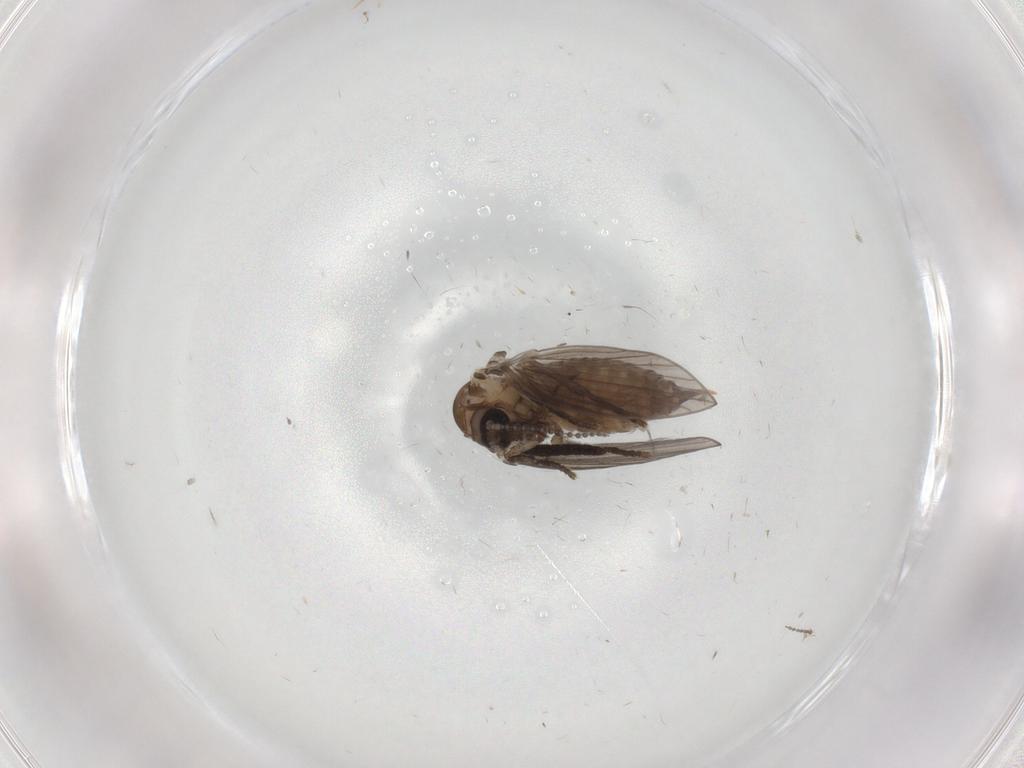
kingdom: Animalia
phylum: Arthropoda
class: Insecta
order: Diptera
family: Psychodidae
